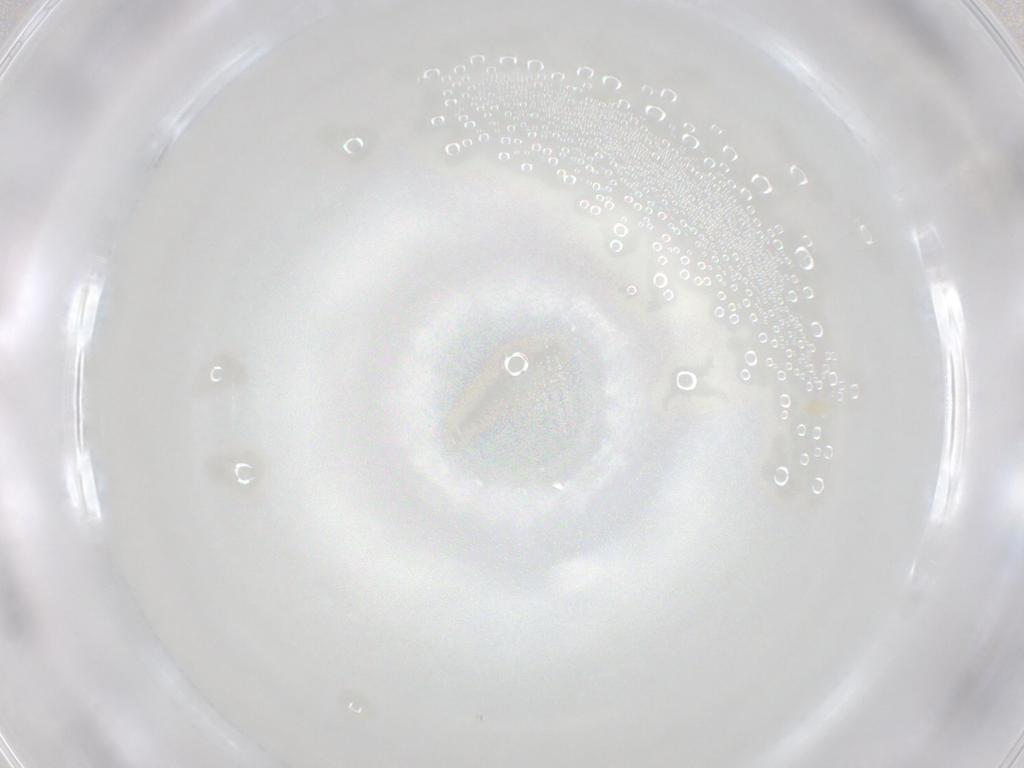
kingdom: Animalia
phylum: Arthropoda
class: Arachnida
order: Trombidiformes
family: Eupodidae
